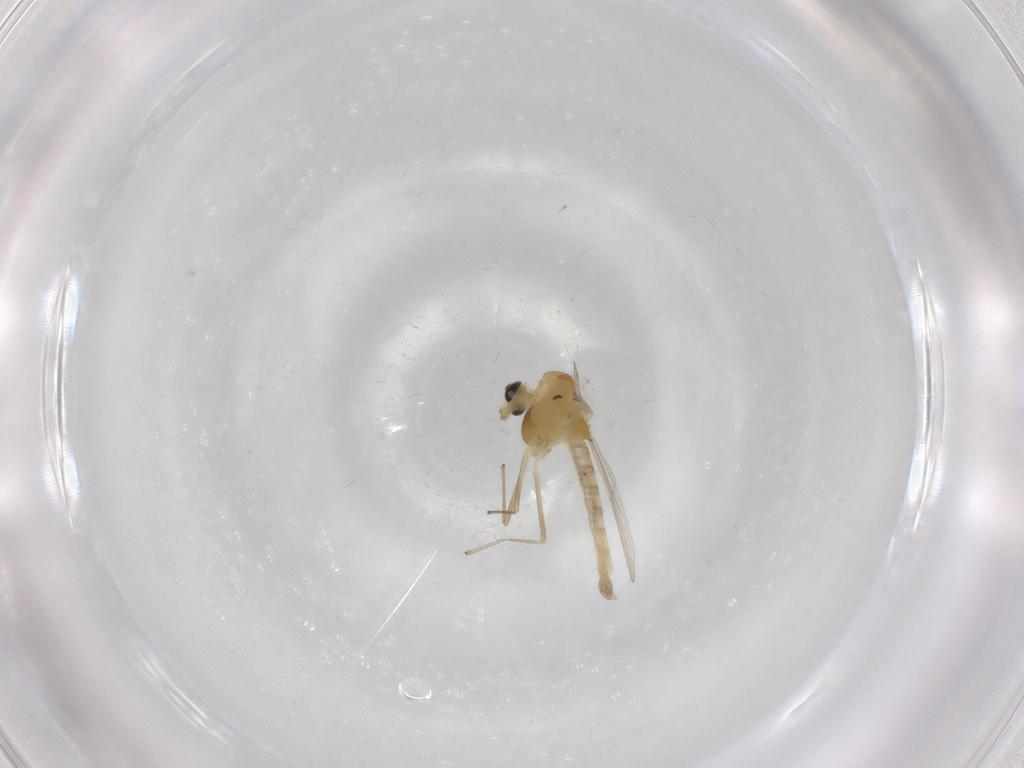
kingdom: Animalia
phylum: Arthropoda
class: Insecta
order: Diptera
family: Chironomidae
